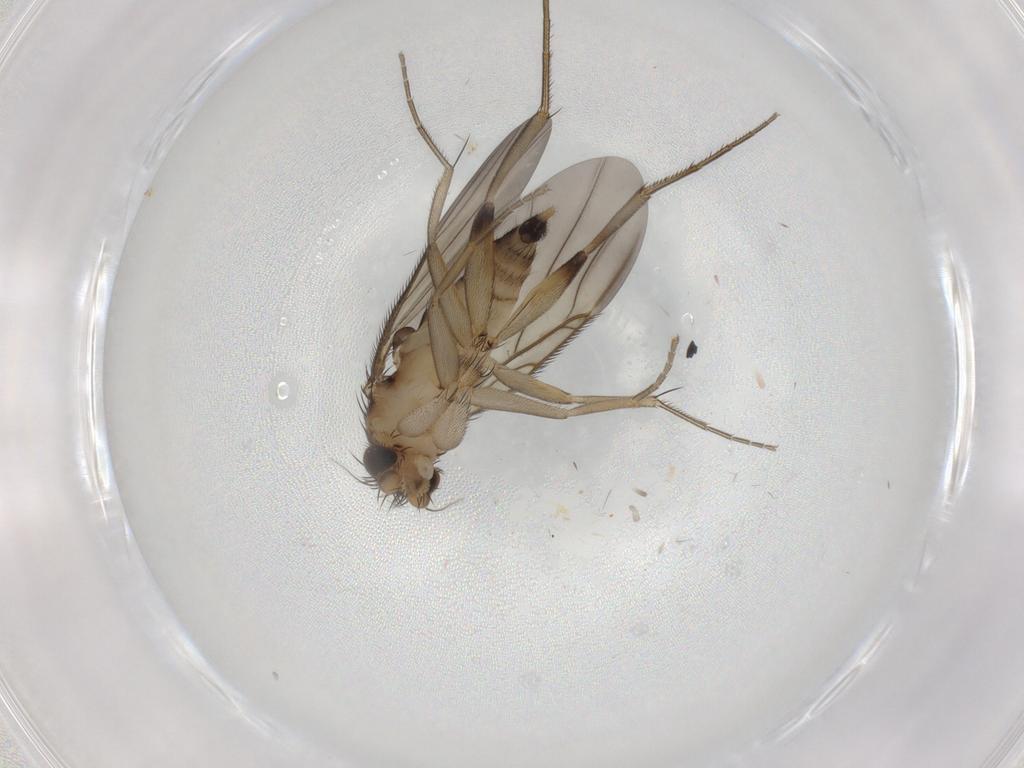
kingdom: Animalia
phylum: Arthropoda
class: Insecta
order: Diptera
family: Phoridae
